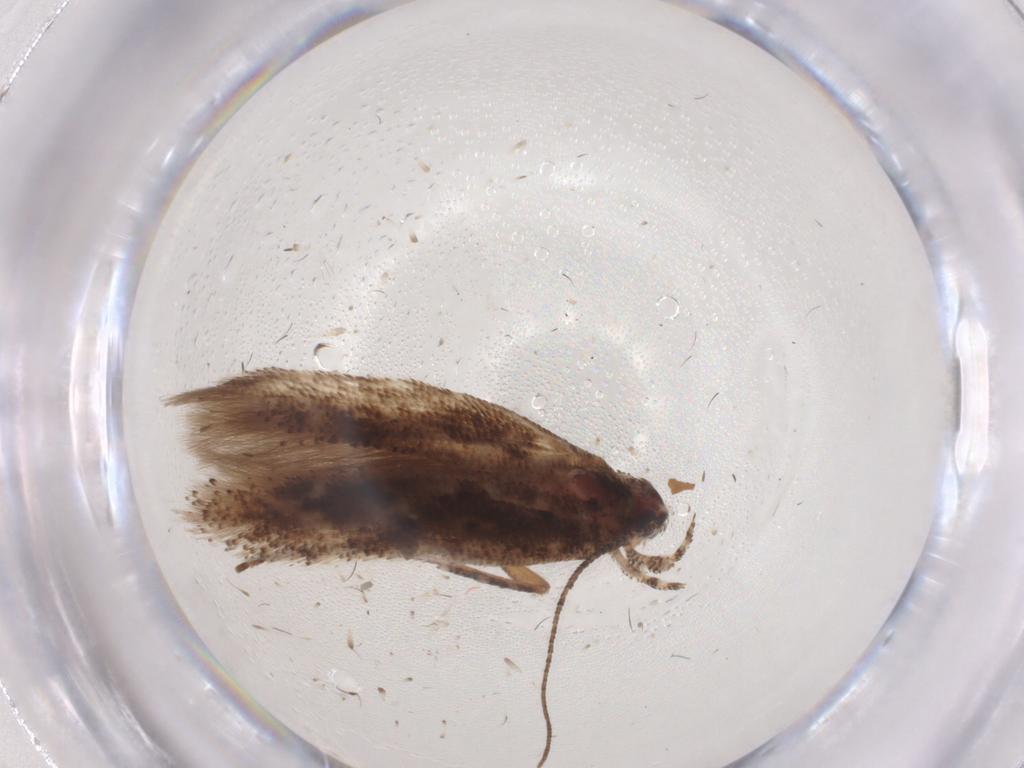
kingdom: Animalia
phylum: Arthropoda
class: Insecta
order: Lepidoptera
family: Gelechiidae
